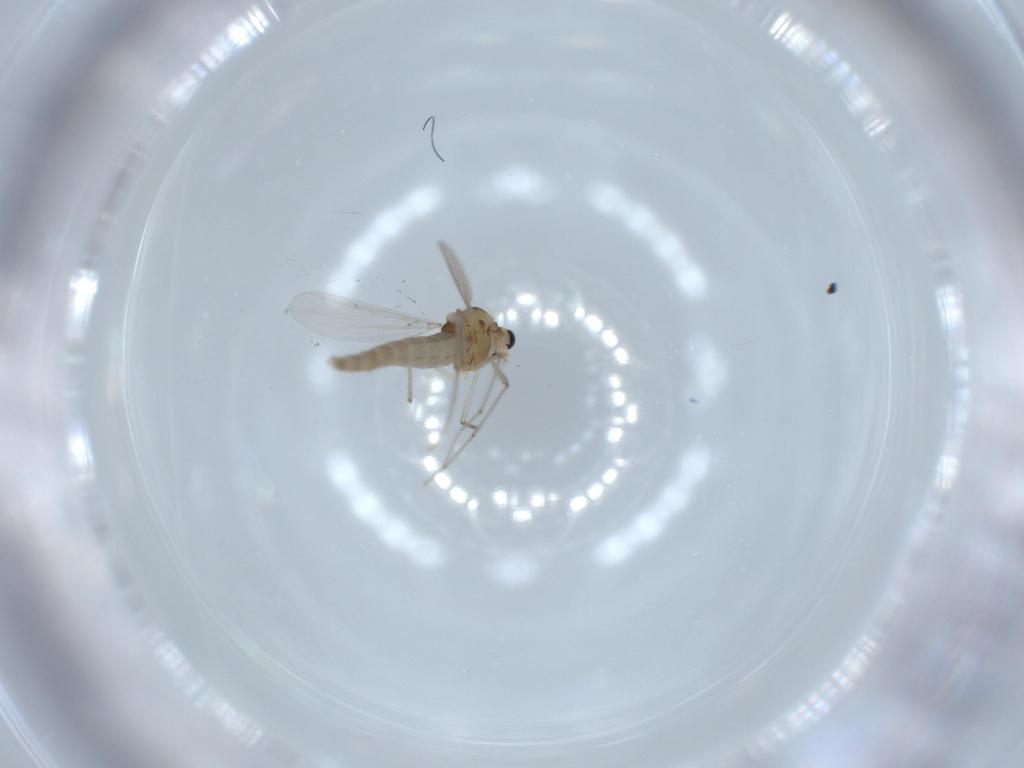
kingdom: Animalia
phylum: Arthropoda
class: Insecta
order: Diptera
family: Chironomidae
